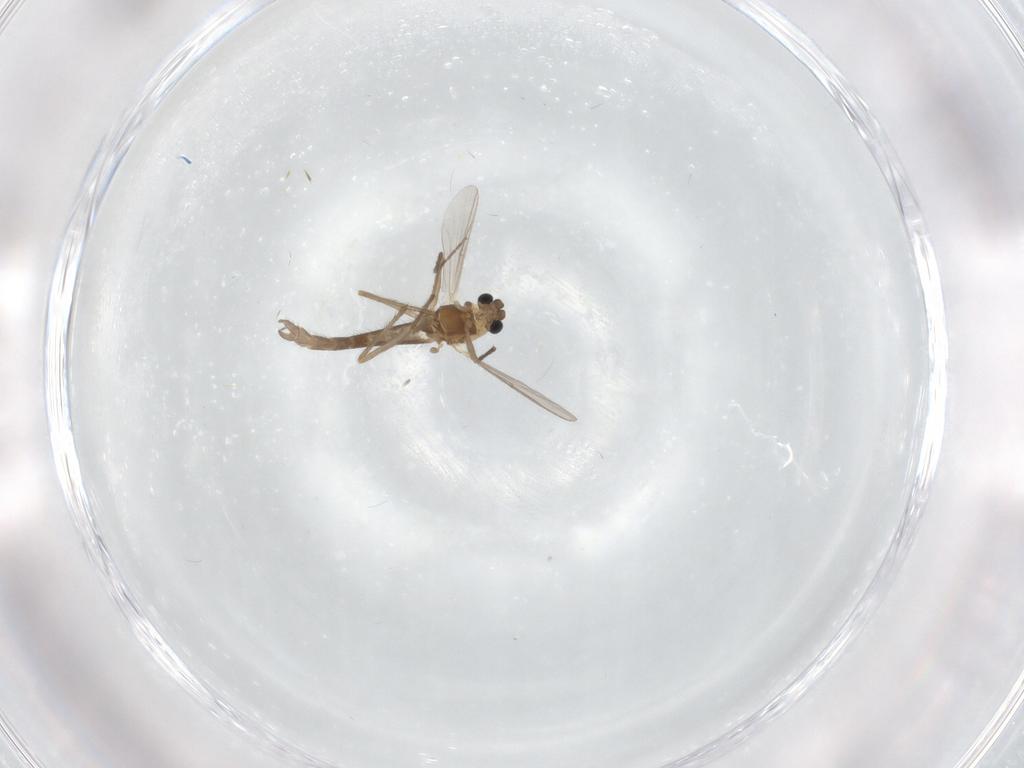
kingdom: Animalia
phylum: Arthropoda
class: Insecta
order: Diptera
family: Chironomidae
